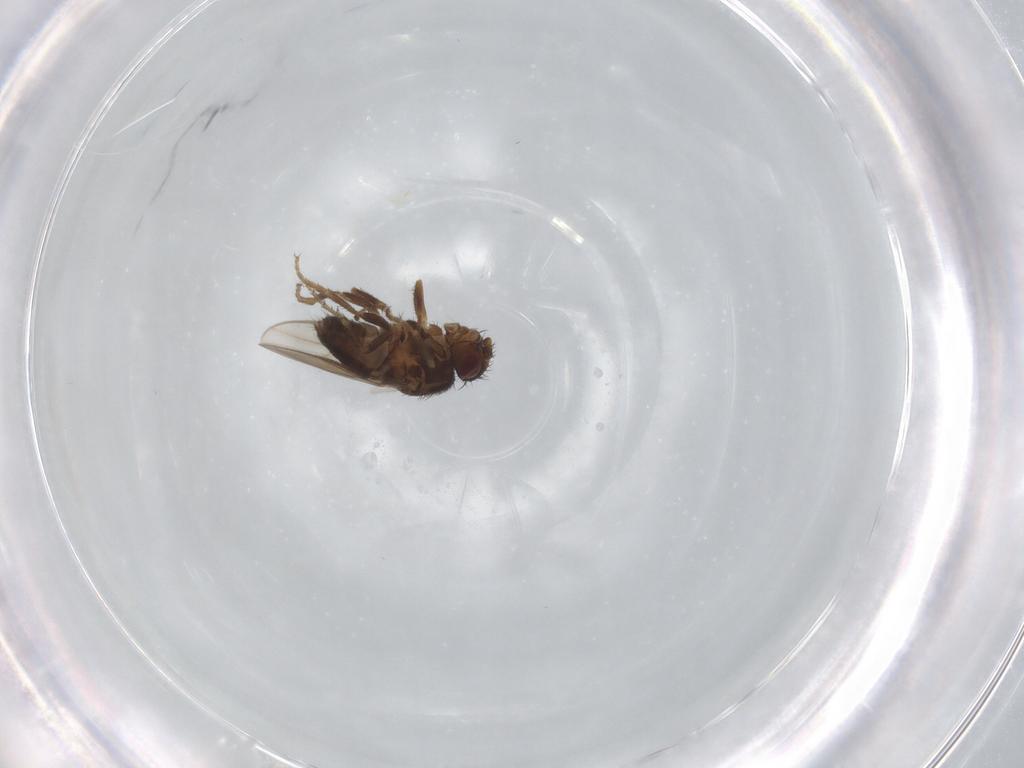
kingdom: Animalia
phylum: Arthropoda
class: Insecta
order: Diptera
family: Sphaeroceridae
